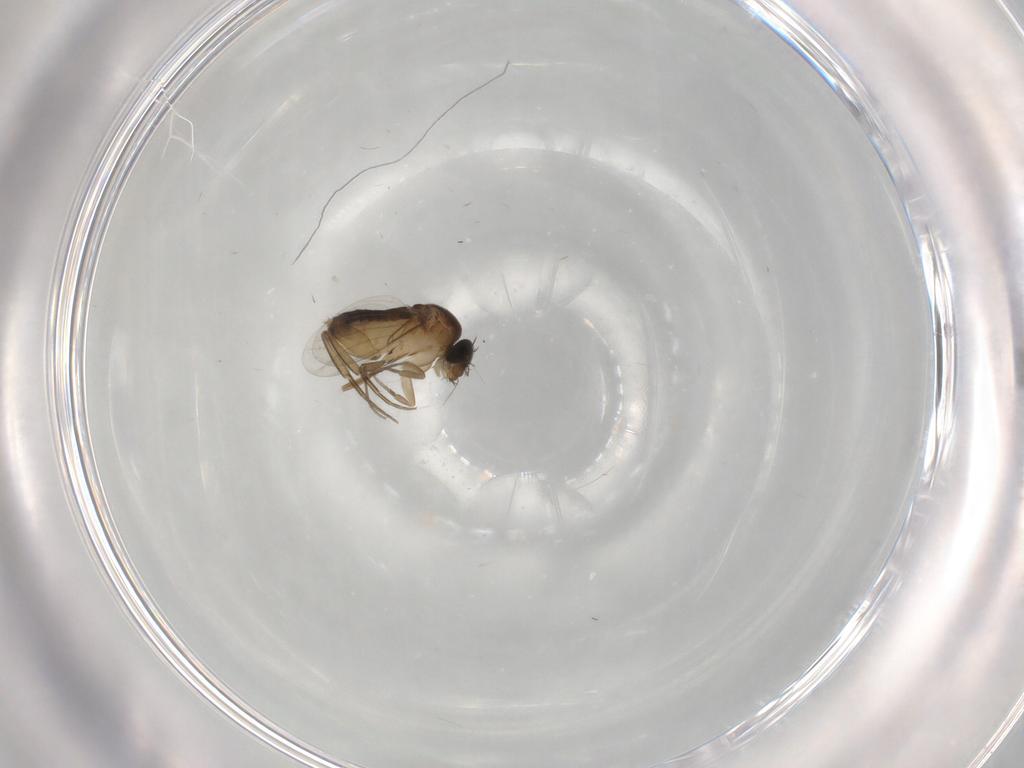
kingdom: Animalia
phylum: Arthropoda
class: Insecta
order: Diptera
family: Phoridae
